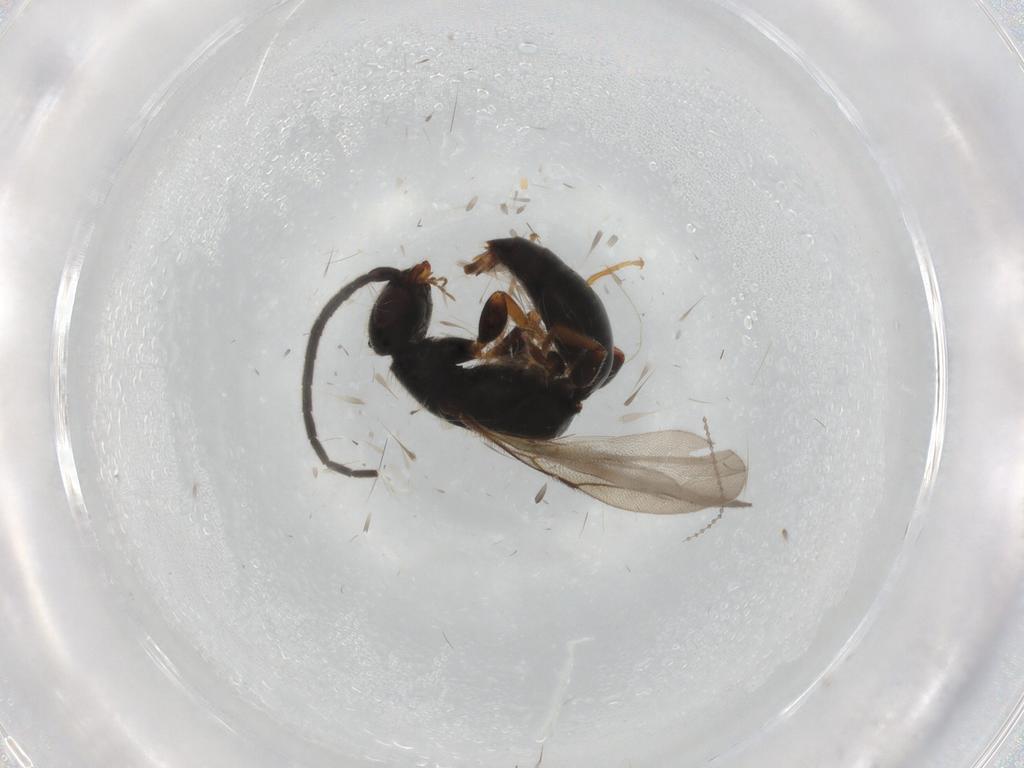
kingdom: Animalia
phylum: Arthropoda
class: Insecta
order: Hymenoptera
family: Bethylidae
